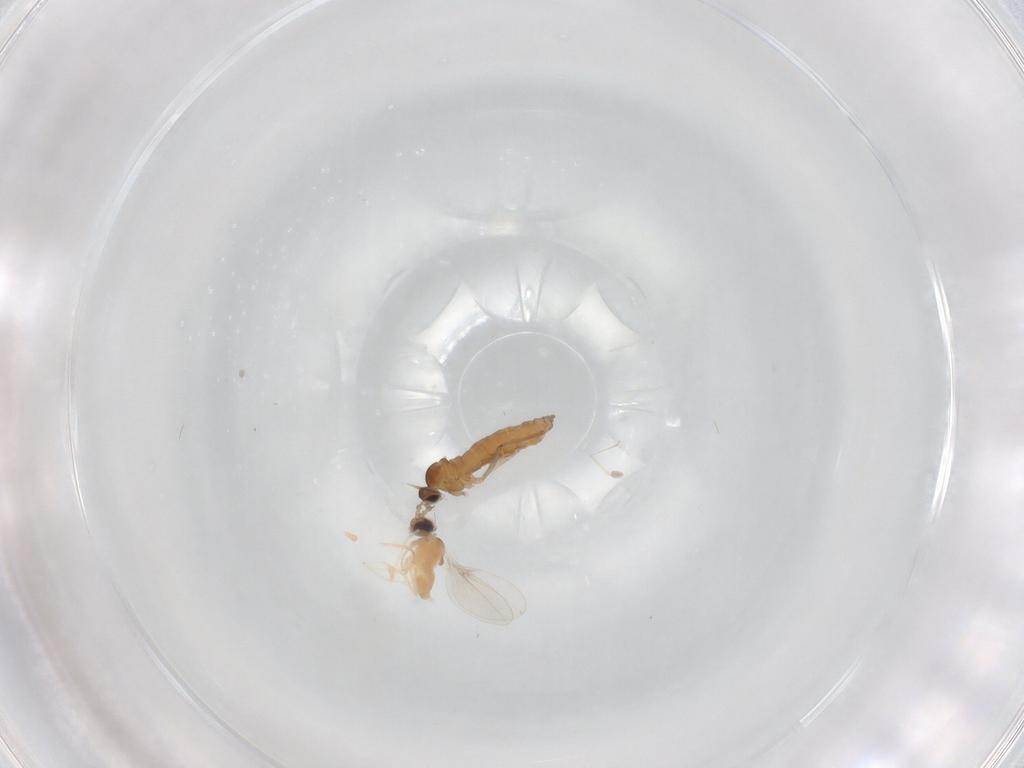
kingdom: Animalia
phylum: Arthropoda
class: Insecta
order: Diptera
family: Cecidomyiidae
